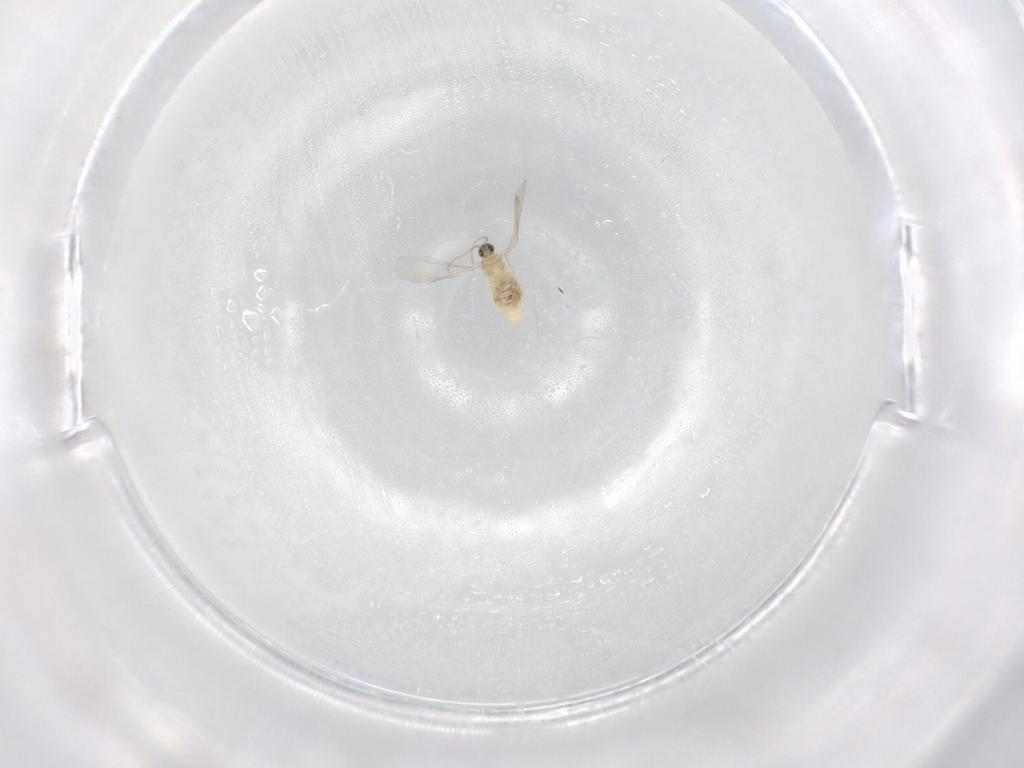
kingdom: Animalia
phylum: Arthropoda
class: Insecta
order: Diptera
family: Cecidomyiidae
